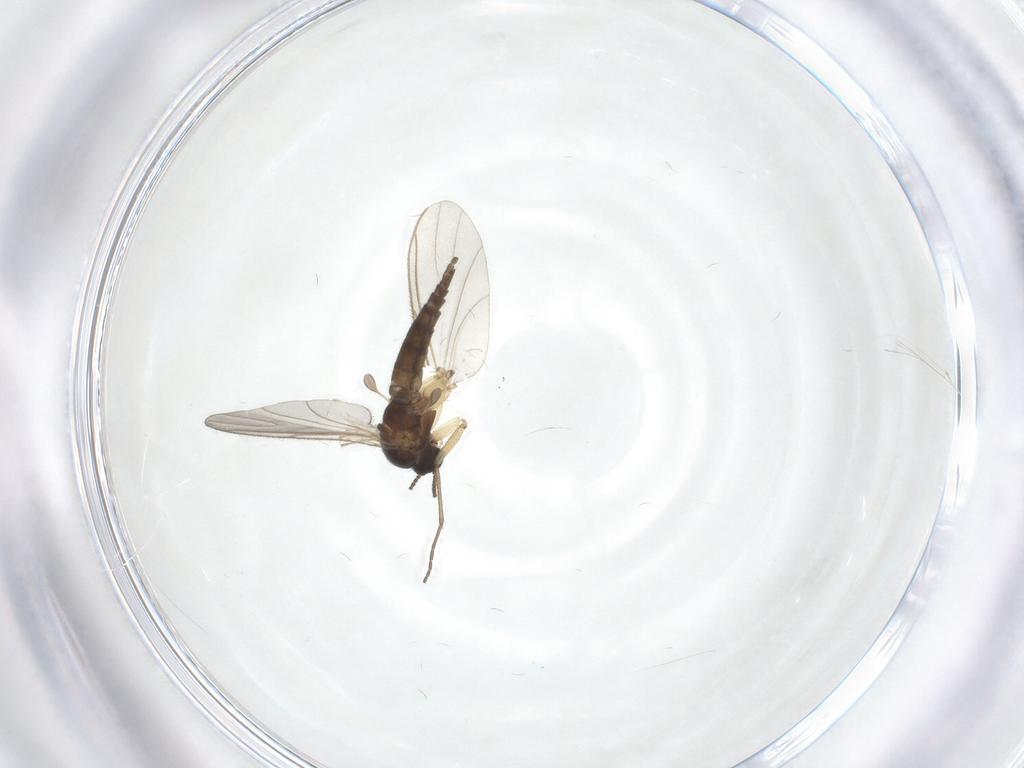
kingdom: Animalia
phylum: Arthropoda
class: Insecta
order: Diptera
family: Sciaridae
